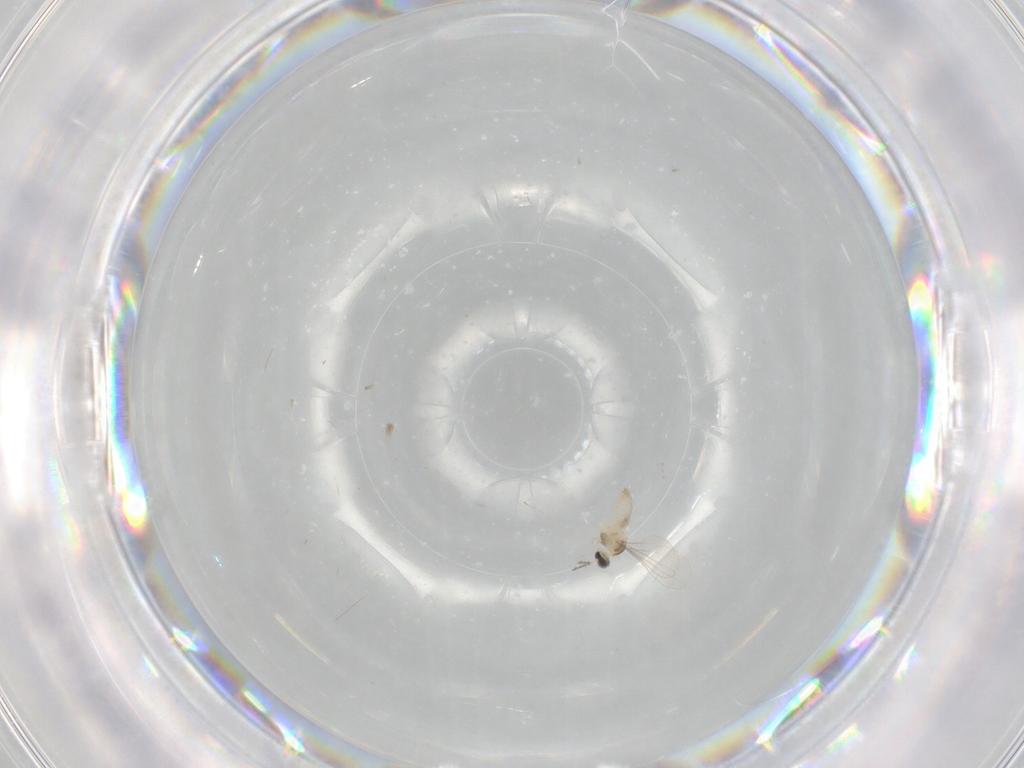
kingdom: Animalia
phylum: Arthropoda
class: Insecta
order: Diptera
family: Cecidomyiidae
